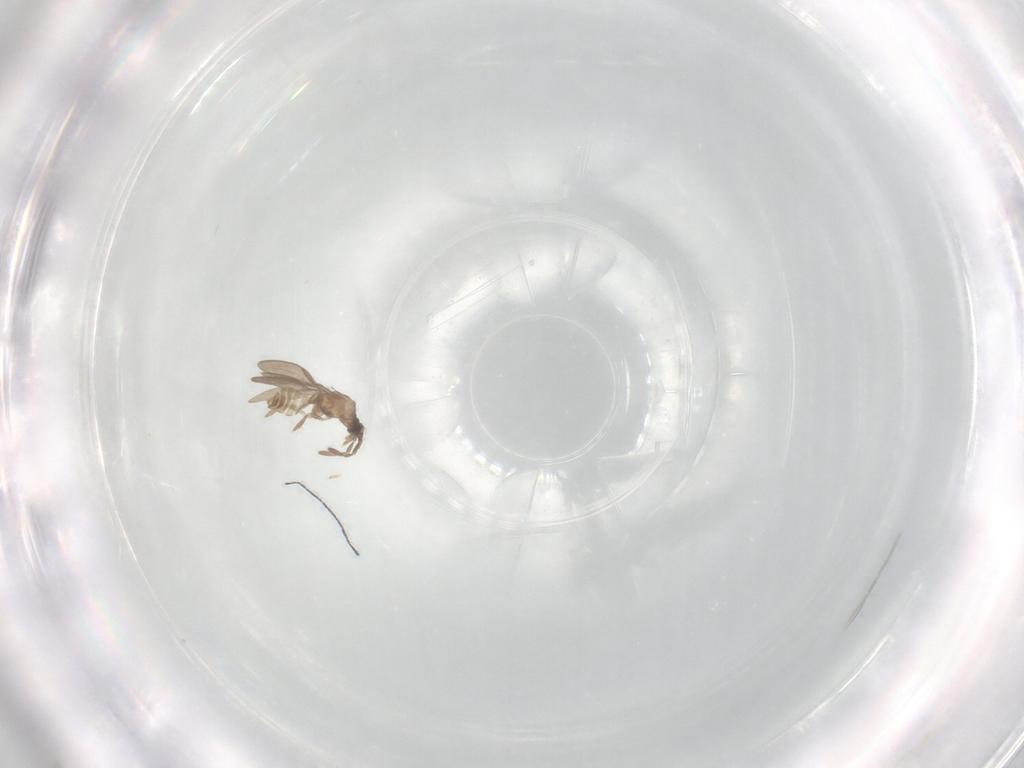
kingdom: Animalia
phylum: Arthropoda
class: Insecta
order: Hemiptera
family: Enicocephalidae
